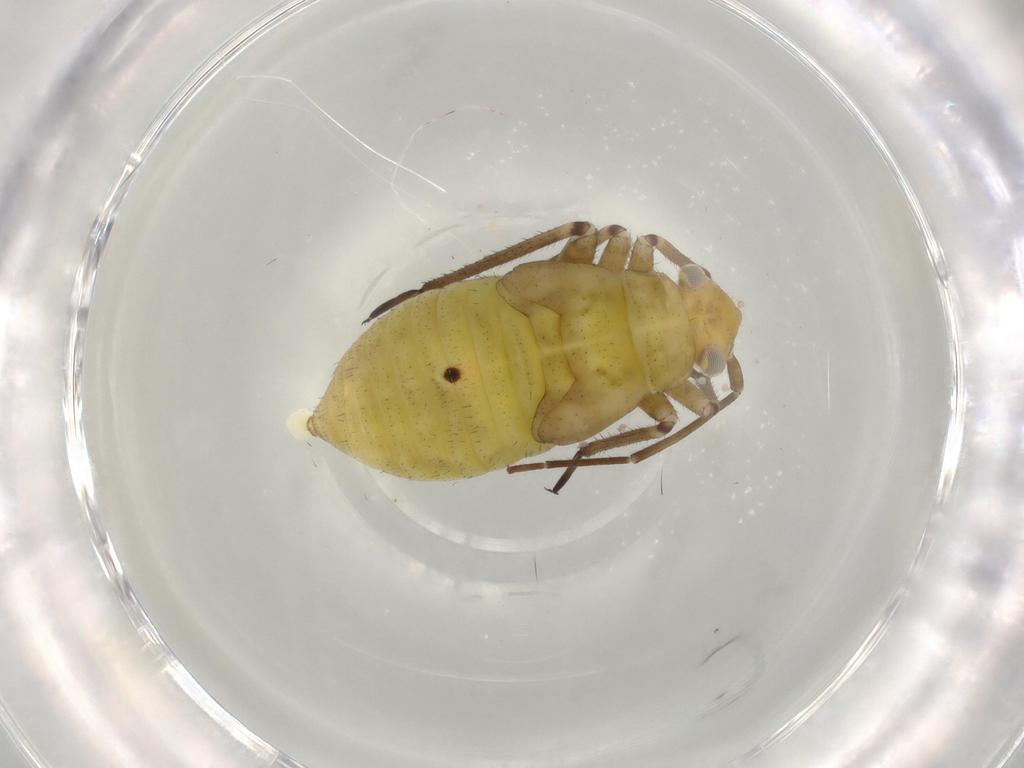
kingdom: Animalia
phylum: Arthropoda
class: Insecta
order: Hemiptera
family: Miridae
